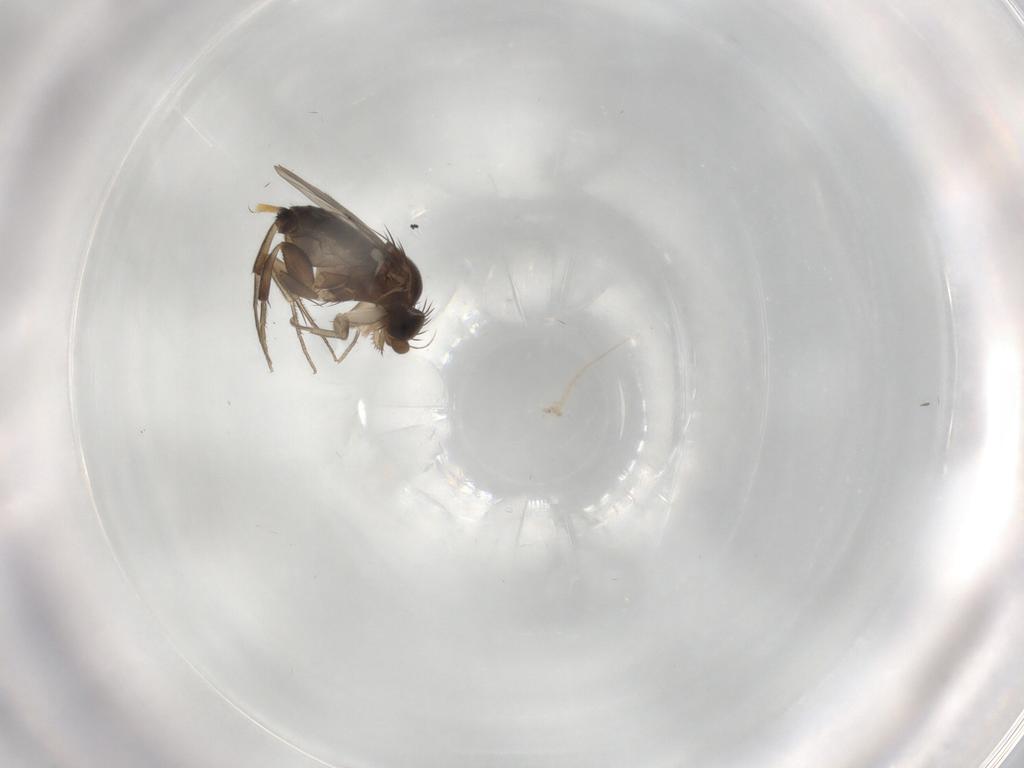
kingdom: Animalia
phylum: Arthropoda
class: Insecta
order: Diptera
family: Phoridae
